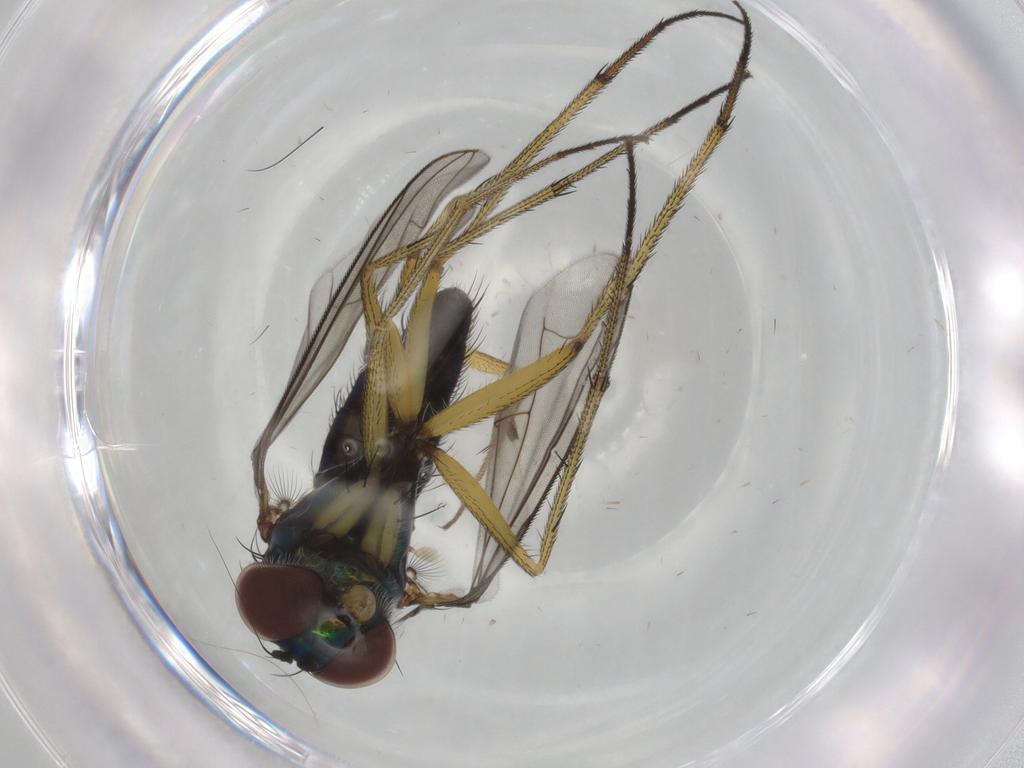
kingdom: Animalia
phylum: Arthropoda
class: Insecta
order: Diptera
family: Dolichopodidae
